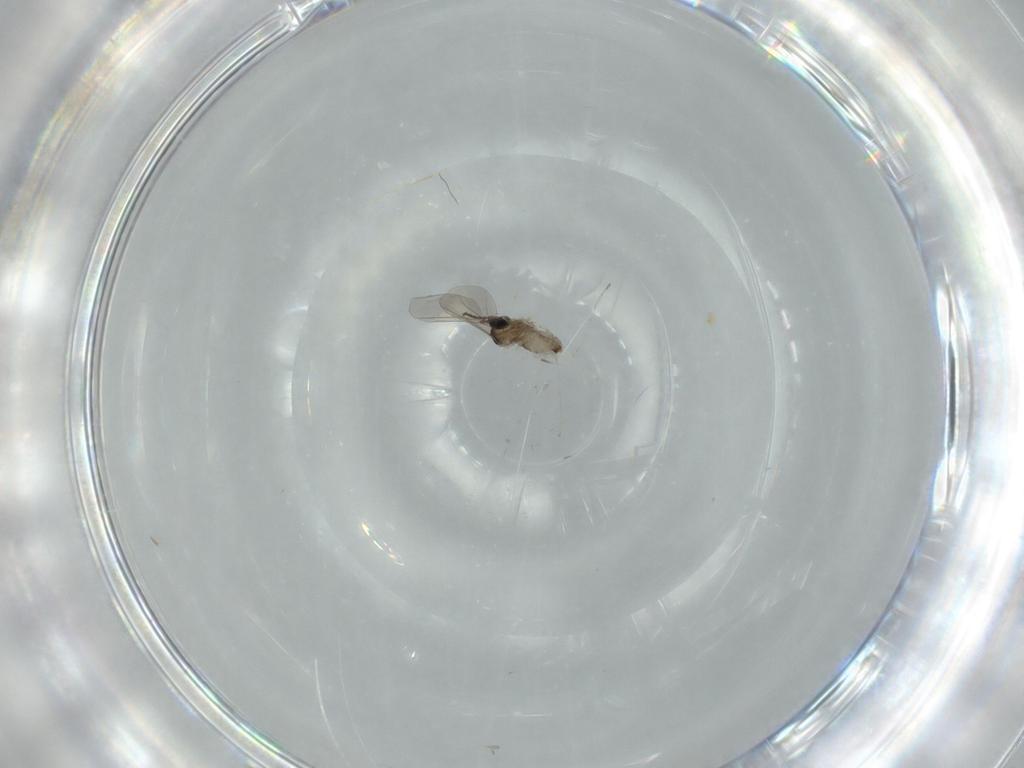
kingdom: Animalia
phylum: Arthropoda
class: Insecta
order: Diptera
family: Cecidomyiidae
